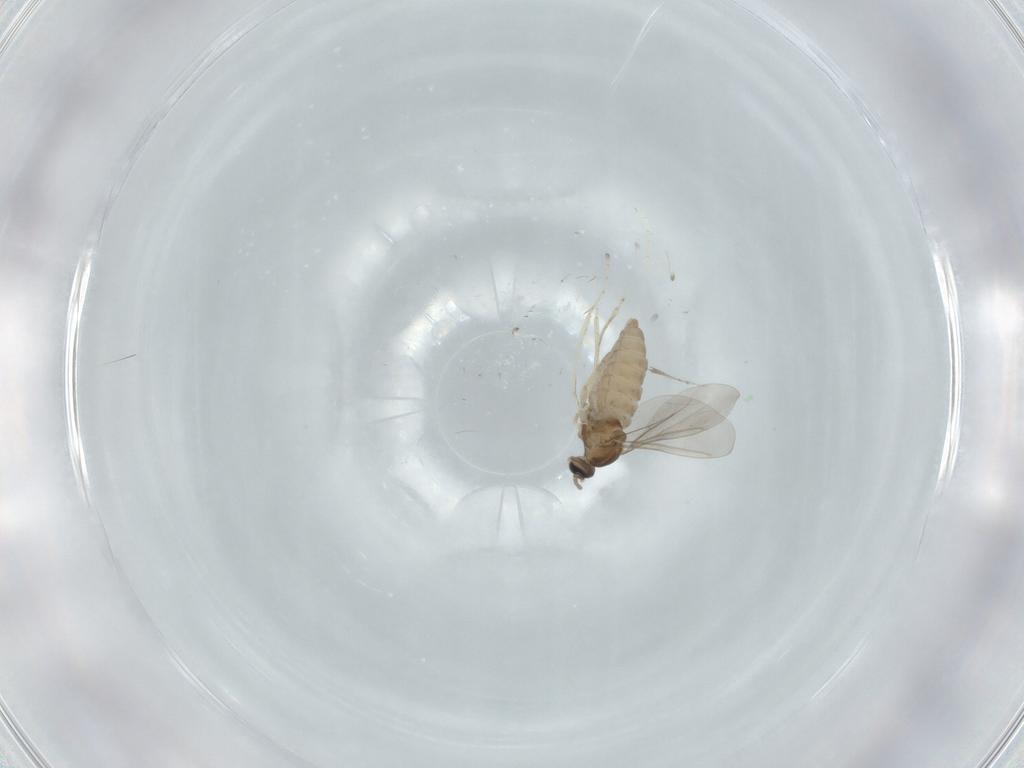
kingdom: Animalia
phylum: Arthropoda
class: Insecta
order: Diptera
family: Cecidomyiidae
